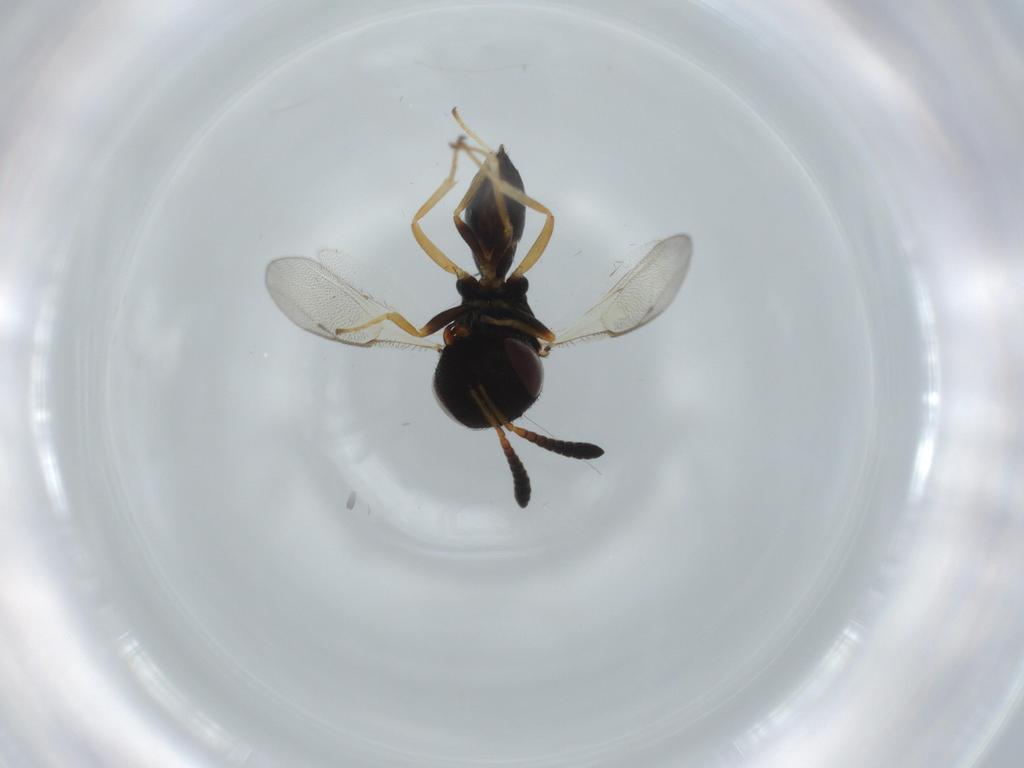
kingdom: Animalia
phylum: Arthropoda
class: Insecta
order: Hymenoptera
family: Pteromalidae
